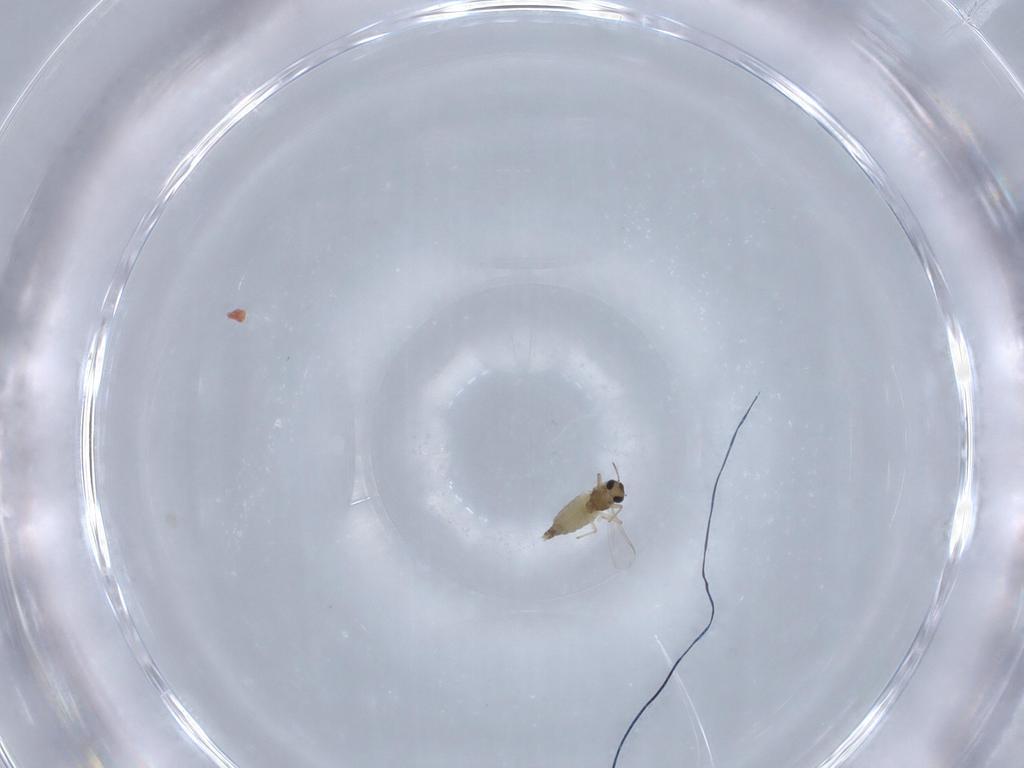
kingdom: Animalia
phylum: Arthropoda
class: Insecta
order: Diptera
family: Chironomidae
